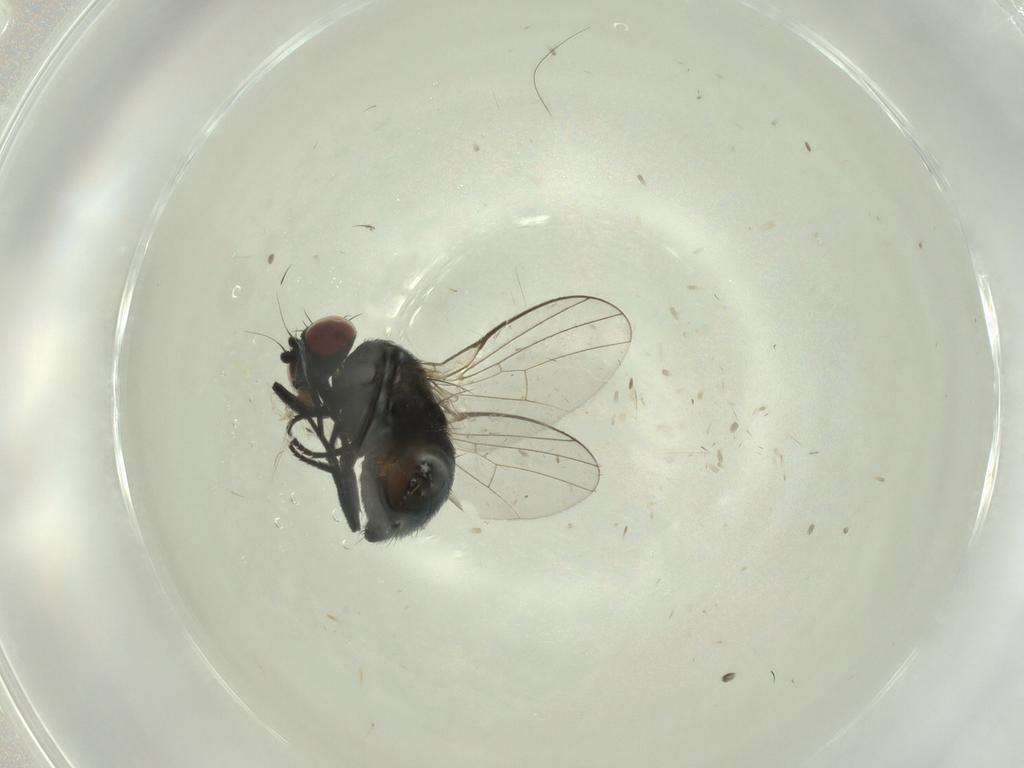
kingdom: Animalia
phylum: Arthropoda
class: Insecta
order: Diptera
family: Agromyzidae
